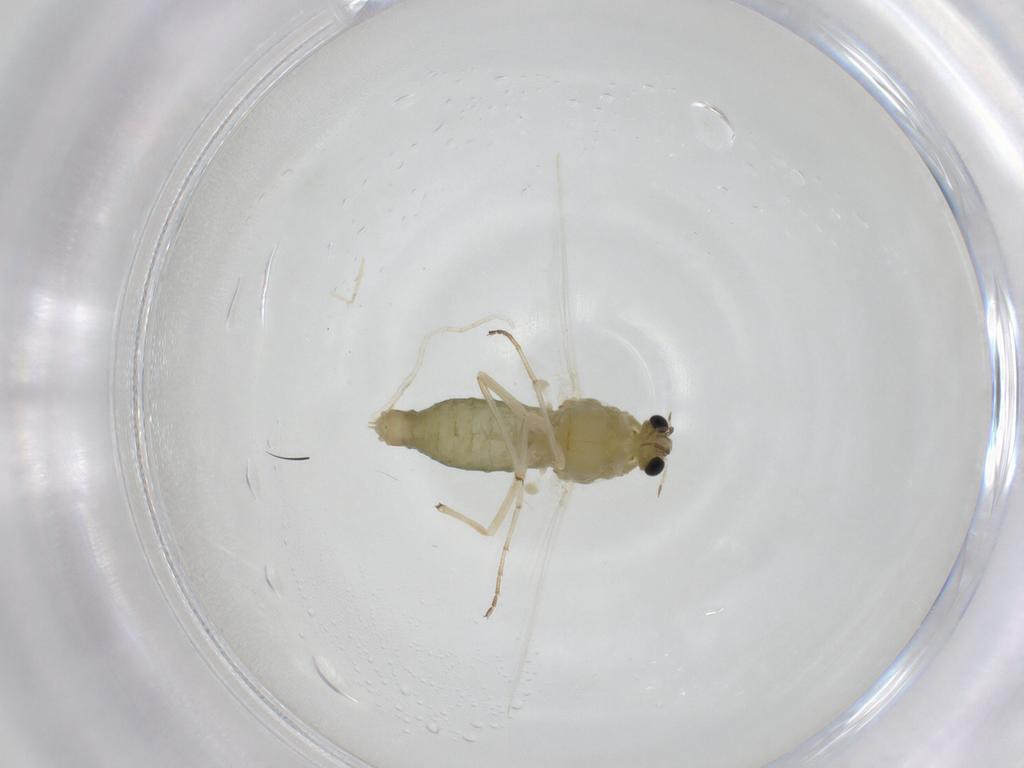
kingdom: Animalia
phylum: Arthropoda
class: Insecta
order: Diptera
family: Chironomidae
